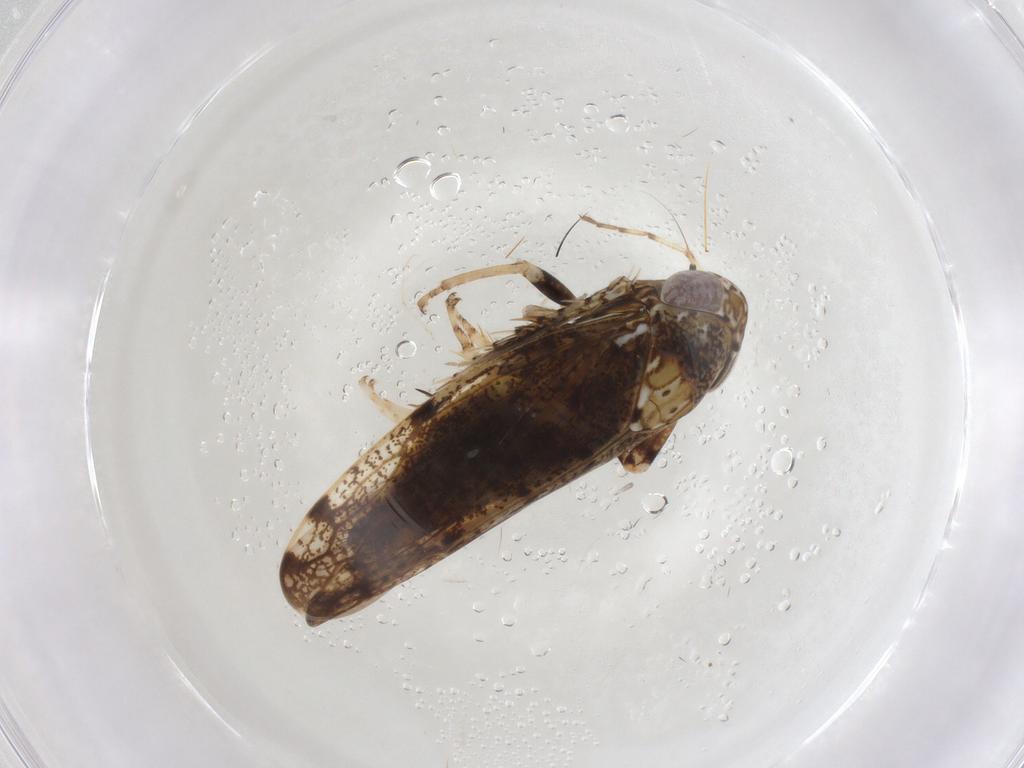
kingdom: Animalia
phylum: Arthropoda
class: Insecta
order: Hemiptera
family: Cicadellidae
